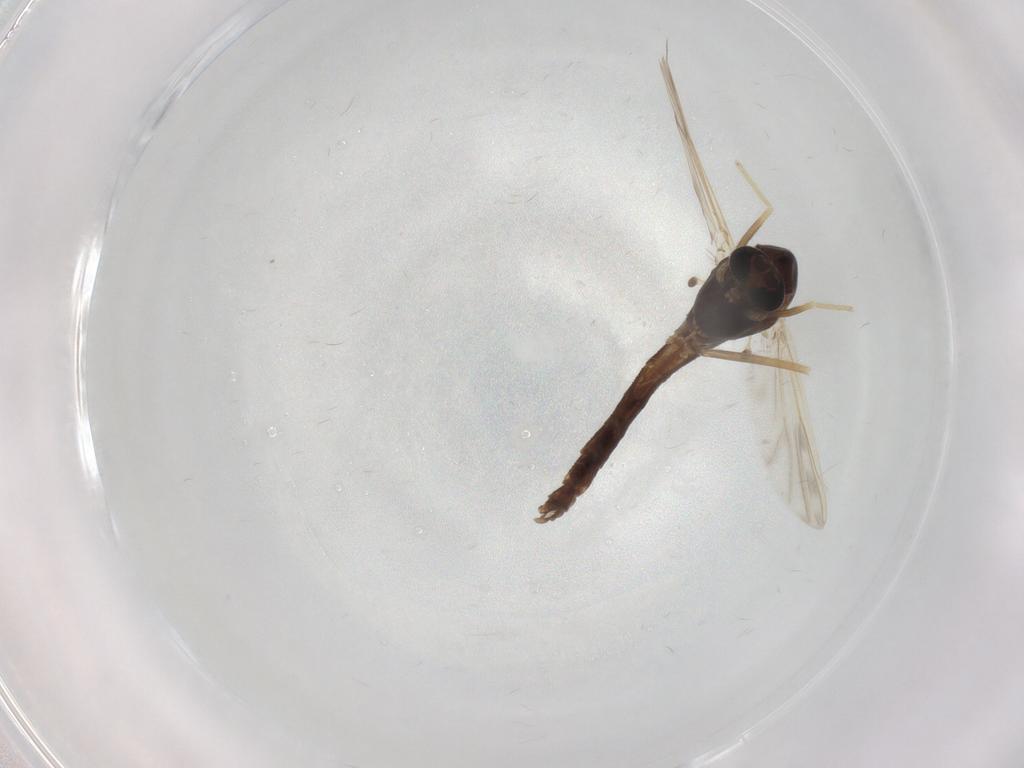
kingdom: Animalia
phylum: Arthropoda
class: Insecta
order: Diptera
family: Chironomidae
